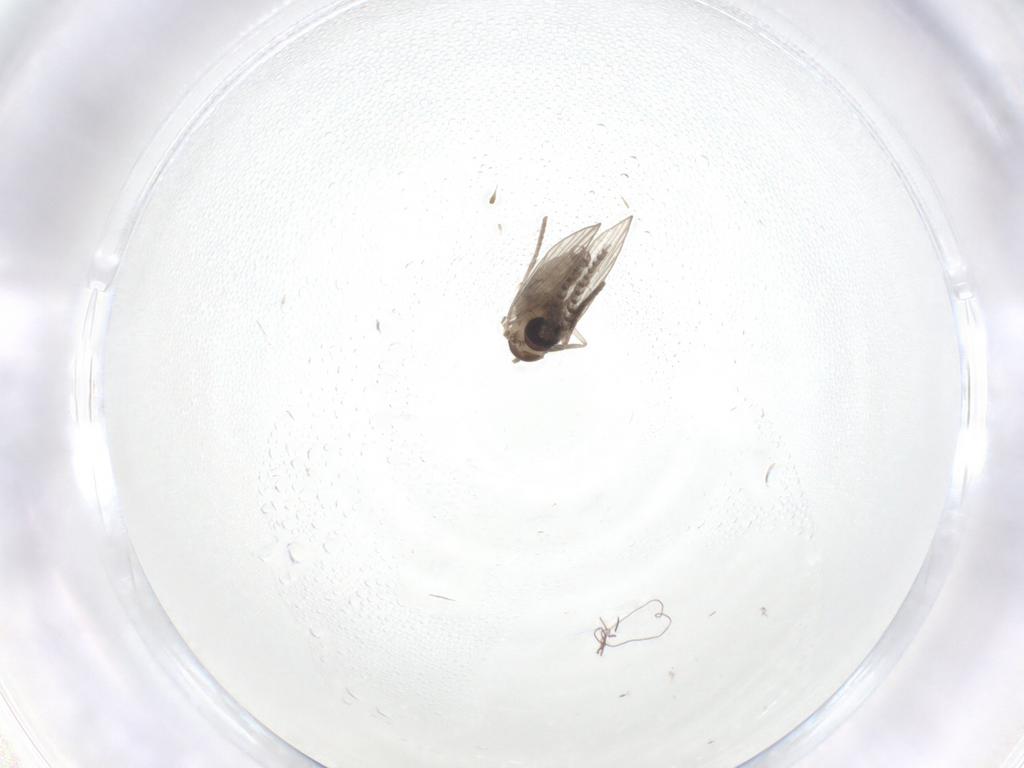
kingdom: Animalia
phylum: Arthropoda
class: Insecta
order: Diptera
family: Psychodidae
